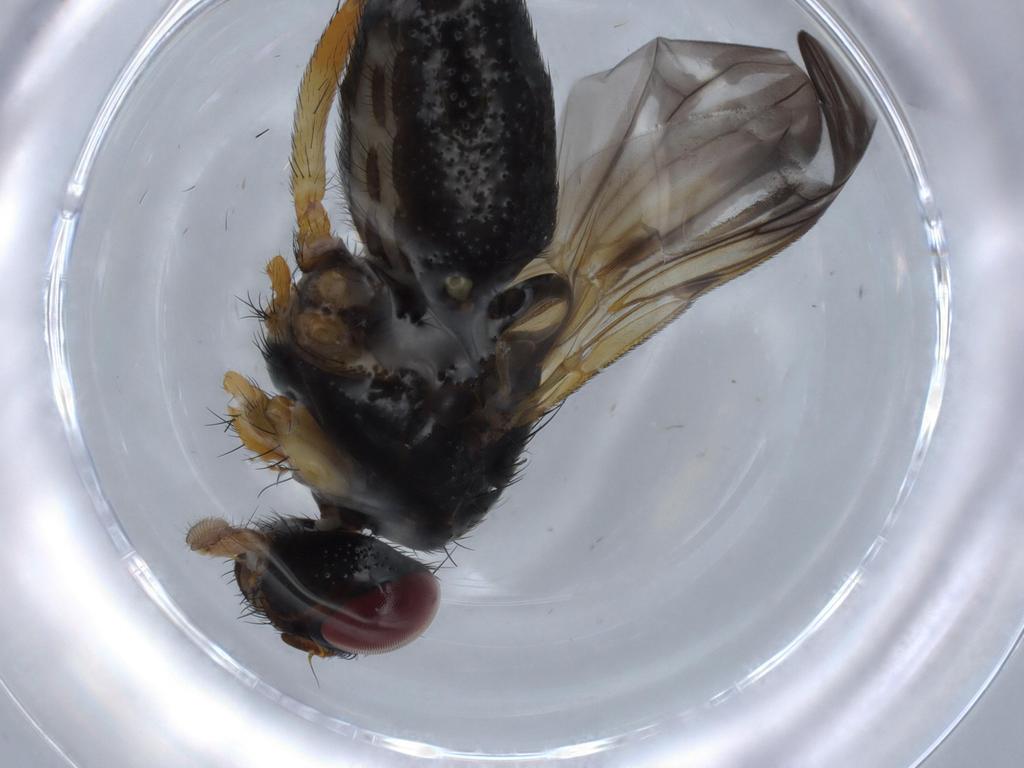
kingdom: Animalia
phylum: Arthropoda
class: Insecta
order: Diptera
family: Calliphoridae
